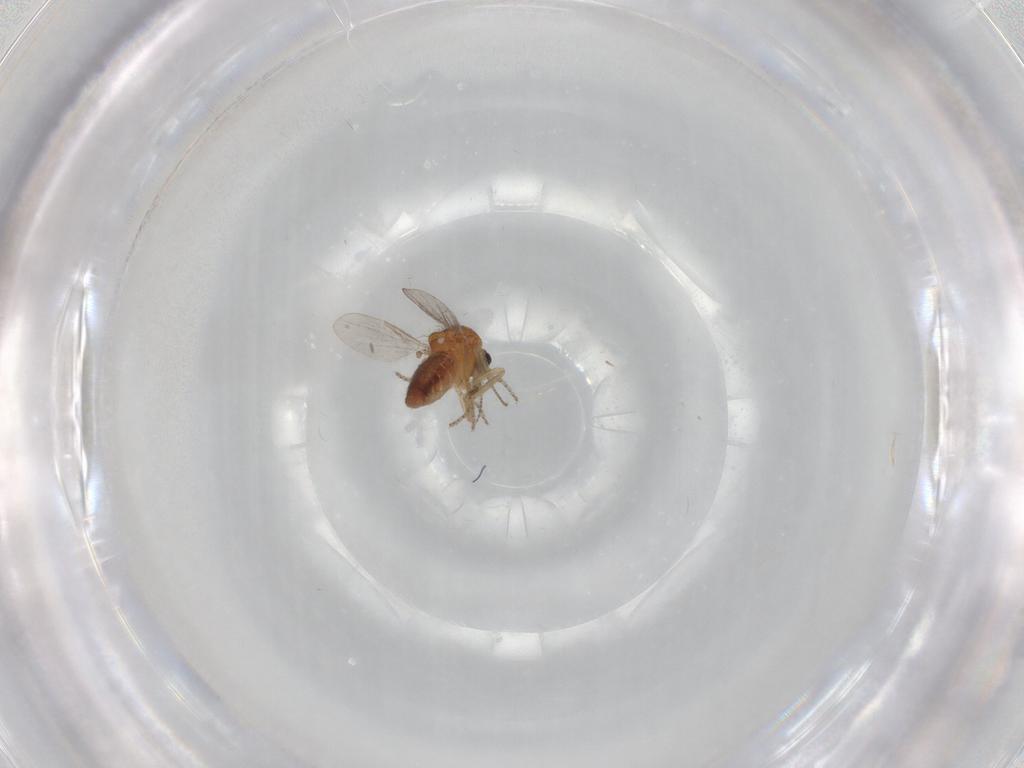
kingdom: Animalia
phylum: Arthropoda
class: Insecta
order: Diptera
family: Ceratopogonidae
